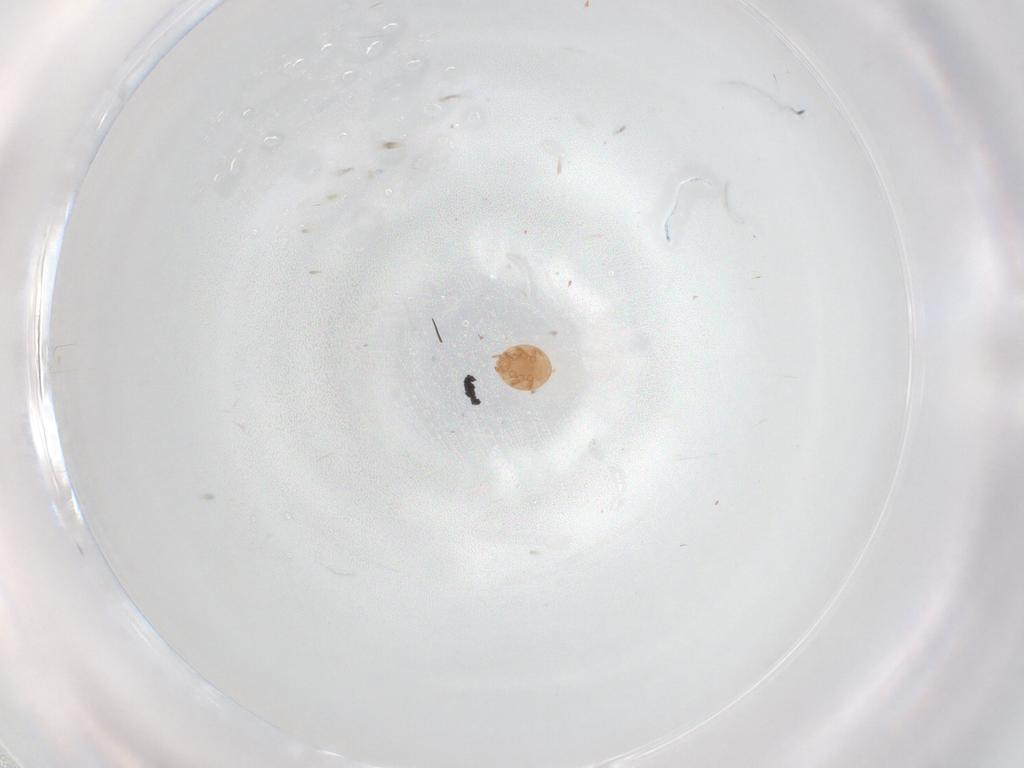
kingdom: Animalia
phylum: Arthropoda
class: Arachnida
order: Mesostigmata
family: Trematuridae
